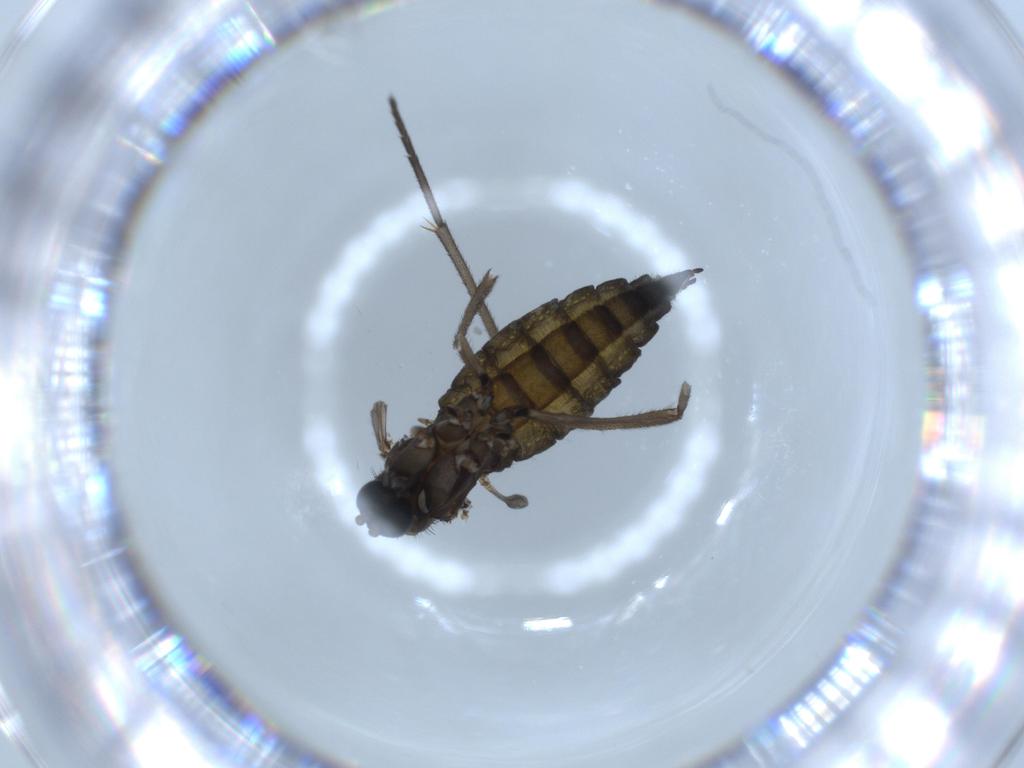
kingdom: Animalia
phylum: Arthropoda
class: Insecta
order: Diptera
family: Sciaridae
